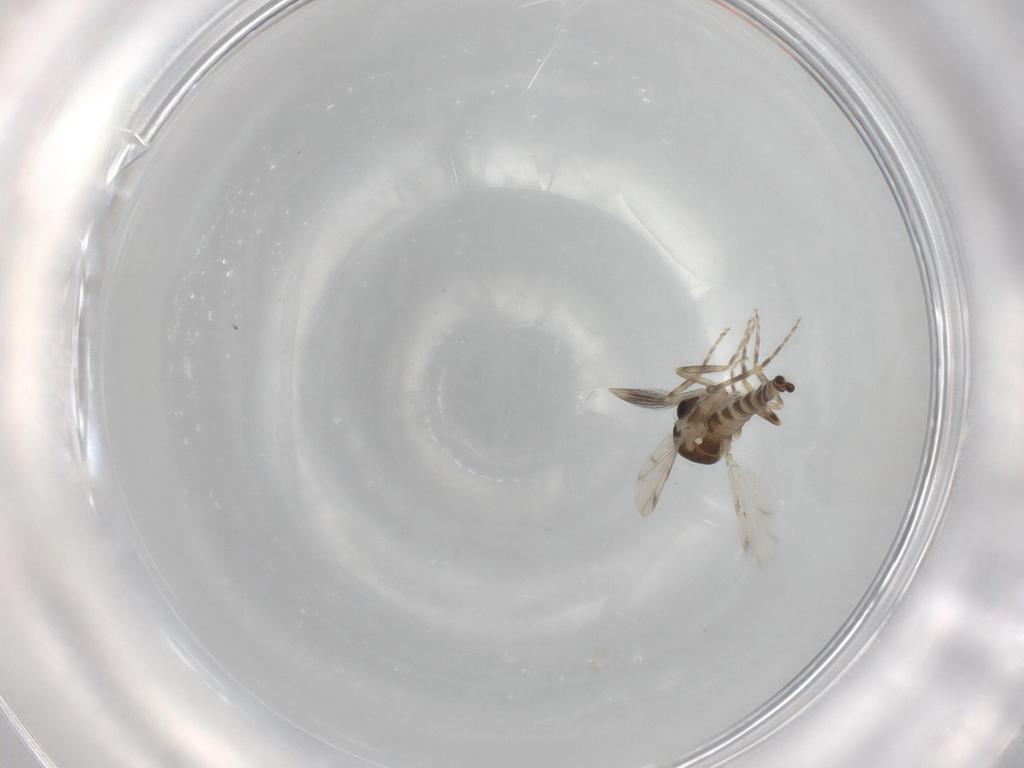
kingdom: Animalia
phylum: Arthropoda
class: Insecta
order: Diptera
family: Ceratopogonidae
